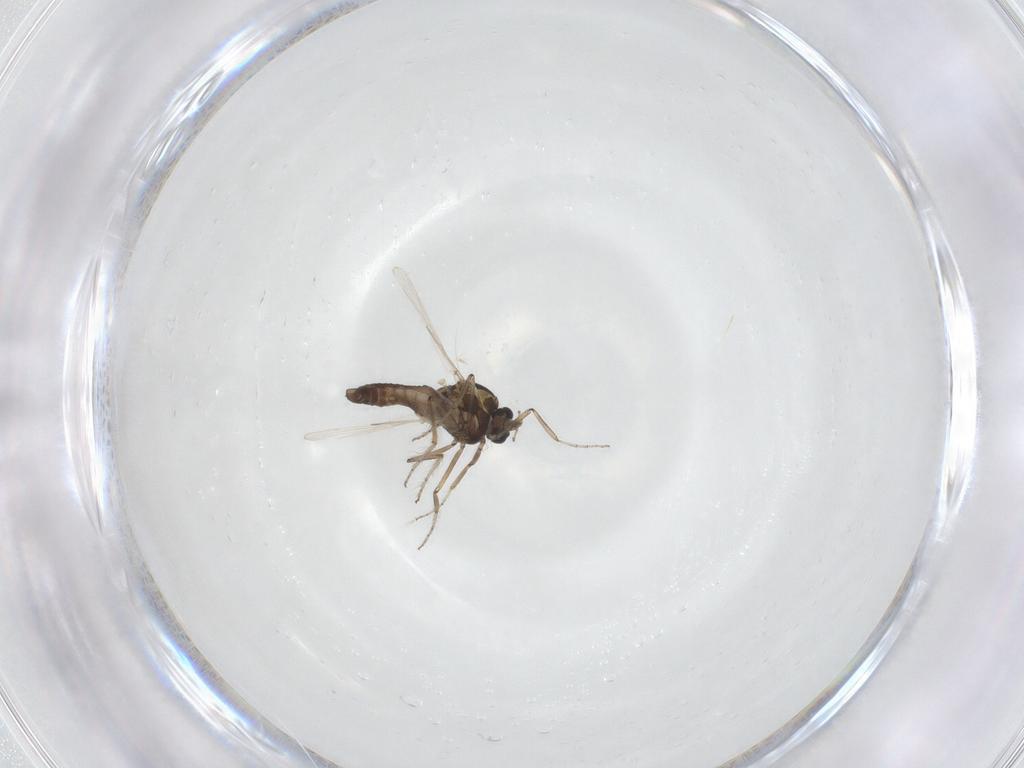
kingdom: Animalia
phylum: Arthropoda
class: Insecta
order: Diptera
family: Ceratopogonidae
